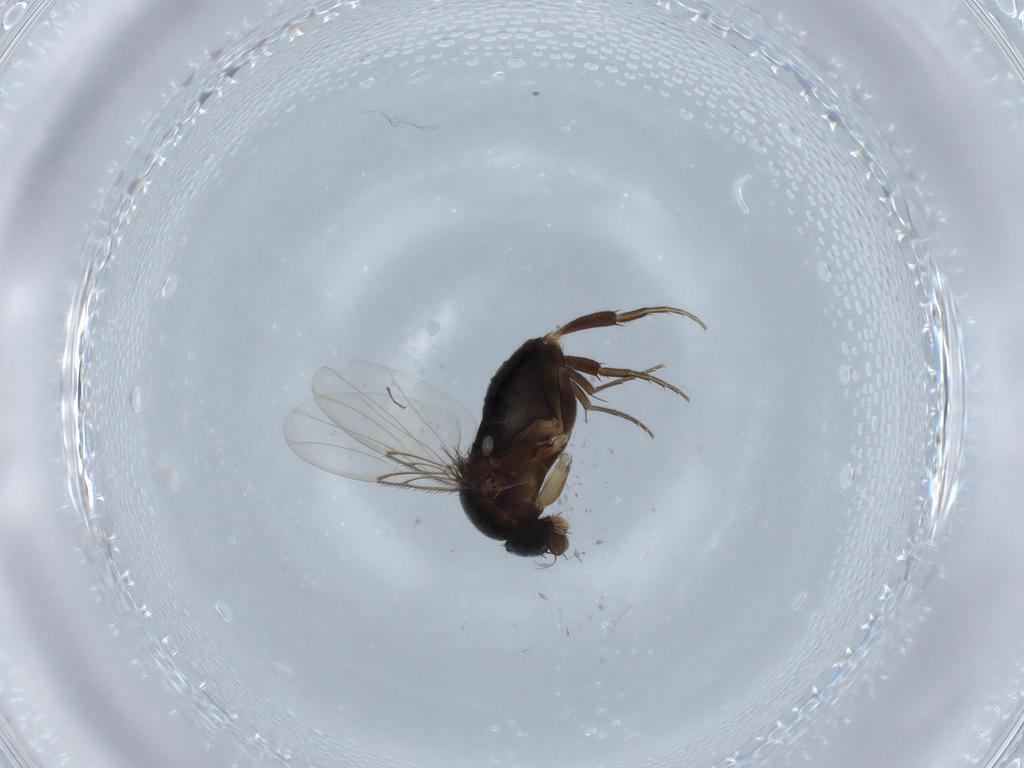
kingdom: Animalia
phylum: Arthropoda
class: Insecta
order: Diptera
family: Phoridae
